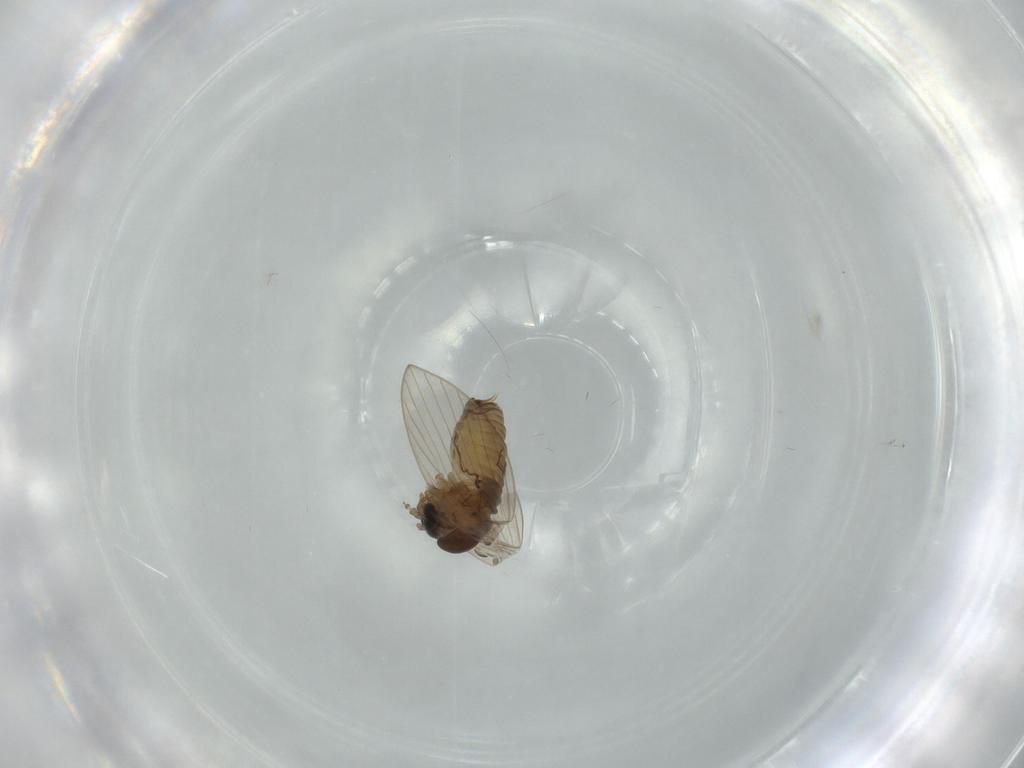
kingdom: Animalia
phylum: Arthropoda
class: Insecta
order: Diptera
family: Psychodidae
